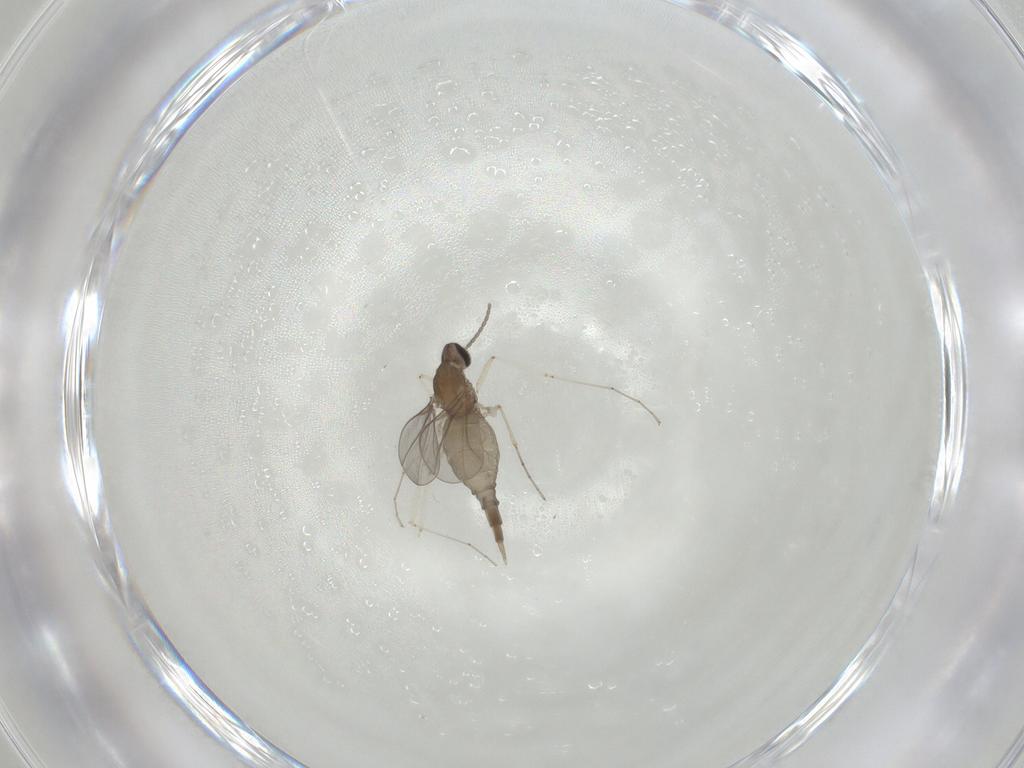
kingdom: Animalia
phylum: Arthropoda
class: Insecta
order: Diptera
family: Cecidomyiidae
